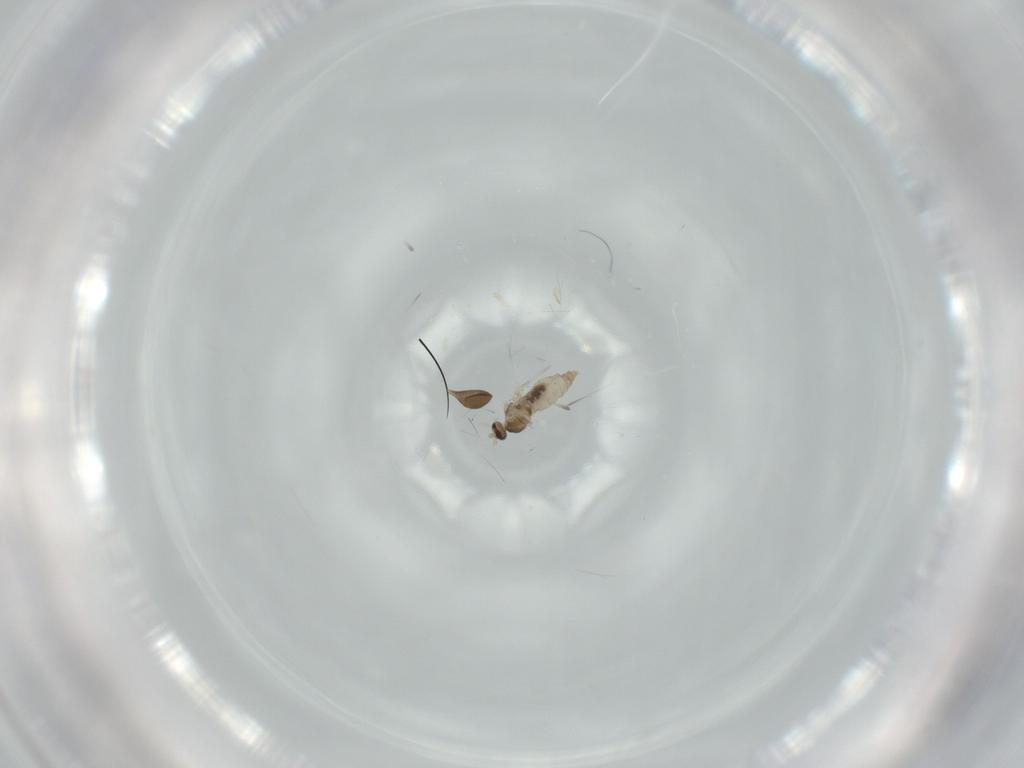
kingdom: Animalia
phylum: Arthropoda
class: Insecta
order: Diptera
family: Cecidomyiidae
